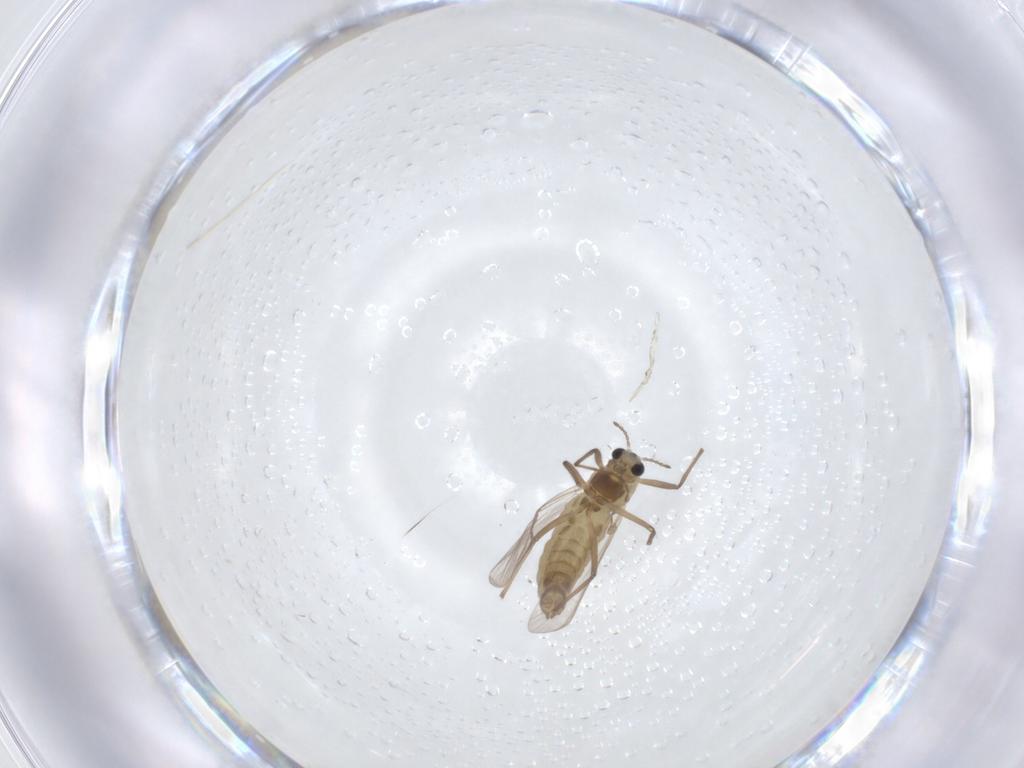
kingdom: Animalia
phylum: Arthropoda
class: Insecta
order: Diptera
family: Chironomidae
